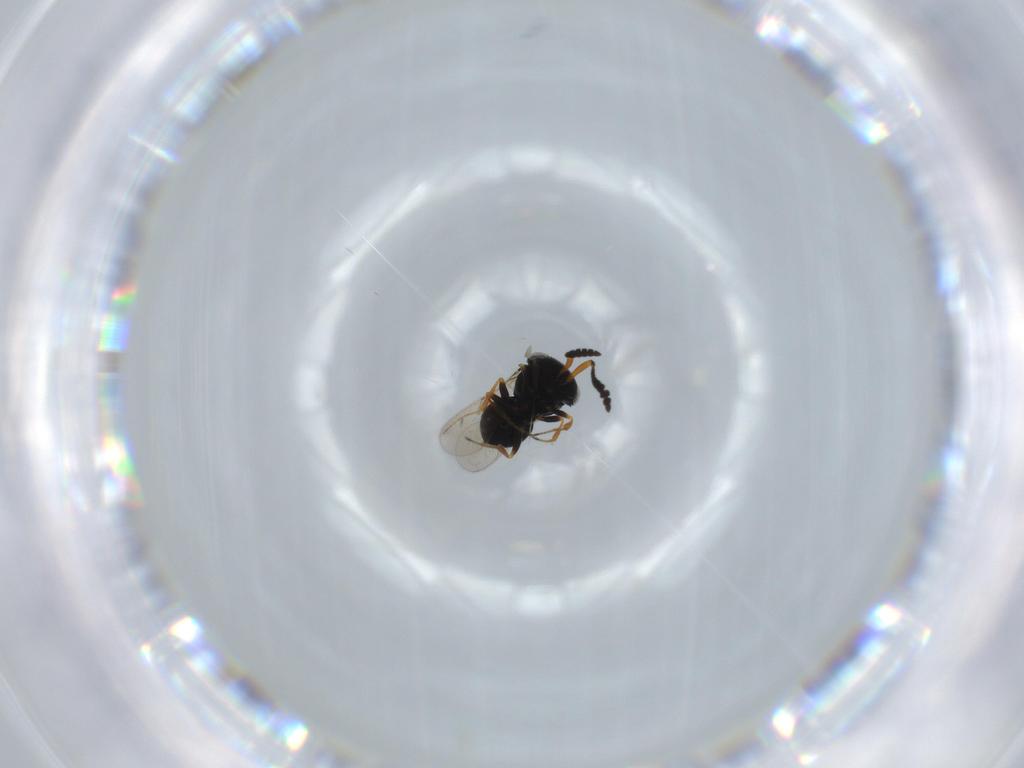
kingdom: Animalia
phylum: Arthropoda
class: Insecta
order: Hymenoptera
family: Scelionidae
